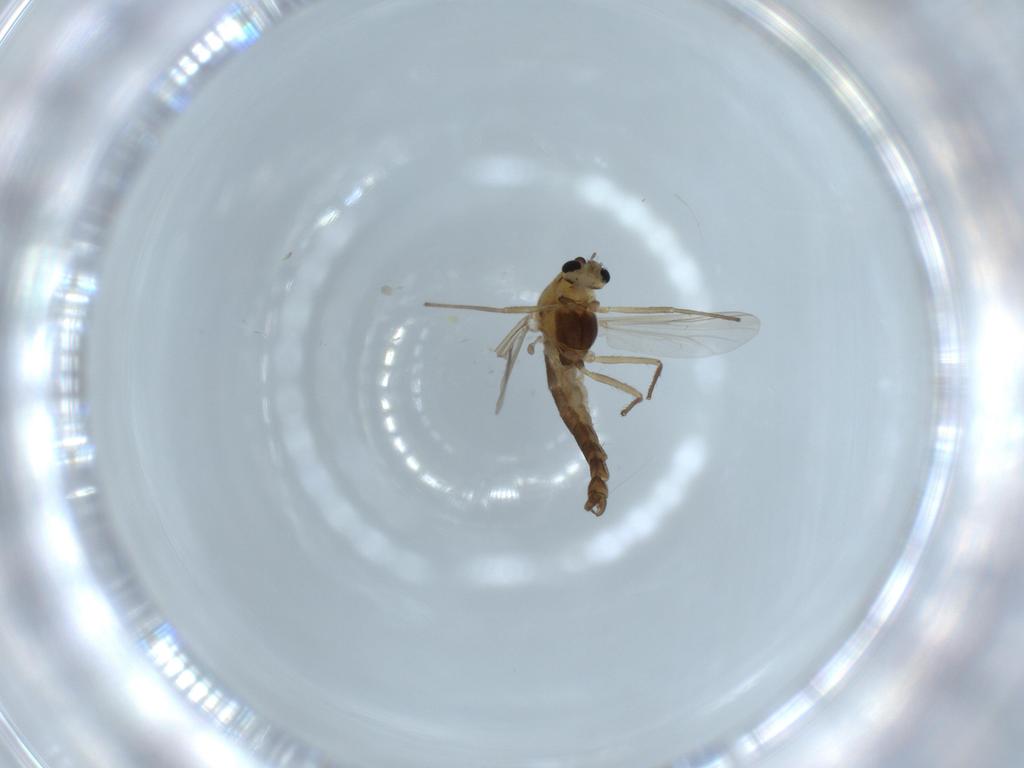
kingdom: Animalia
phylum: Arthropoda
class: Insecta
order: Diptera
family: Chironomidae
